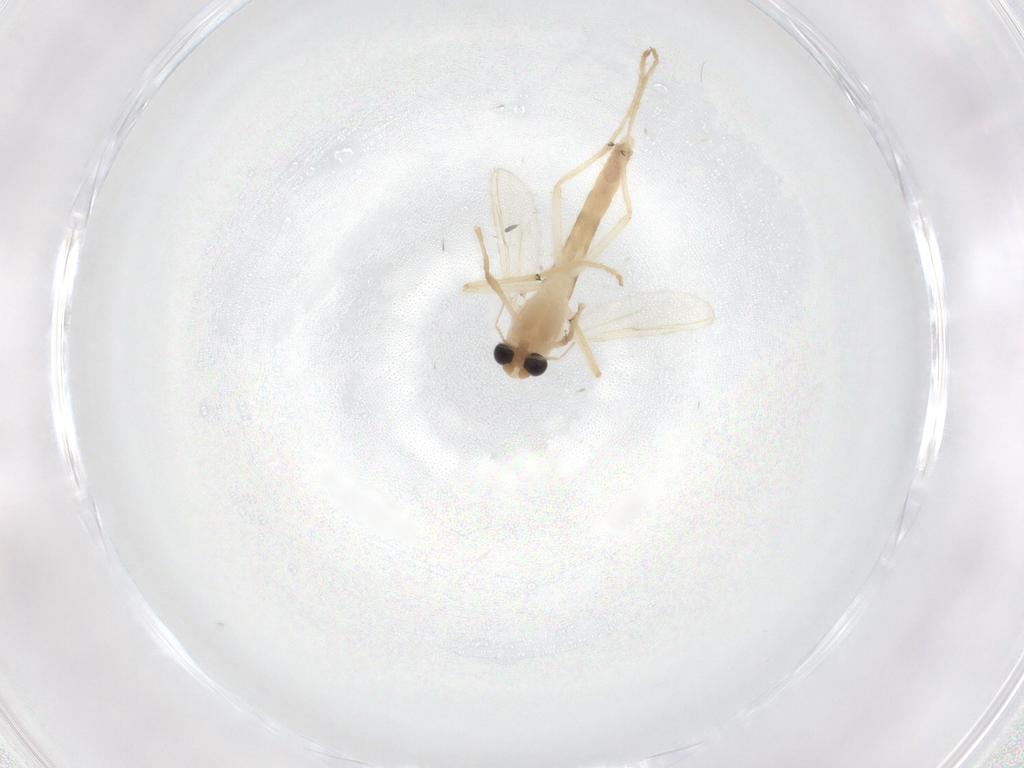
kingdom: Animalia
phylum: Arthropoda
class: Insecta
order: Diptera
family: Chironomidae
